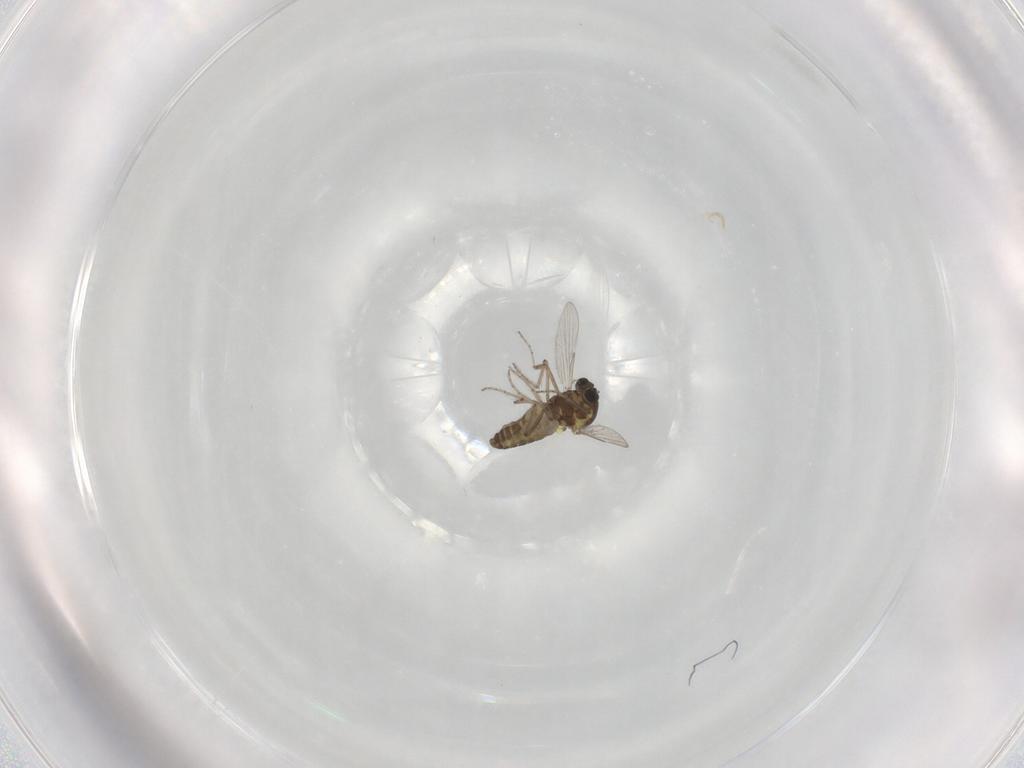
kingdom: Animalia
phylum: Arthropoda
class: Insecta
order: Diptera
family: Ceratopogonidae
